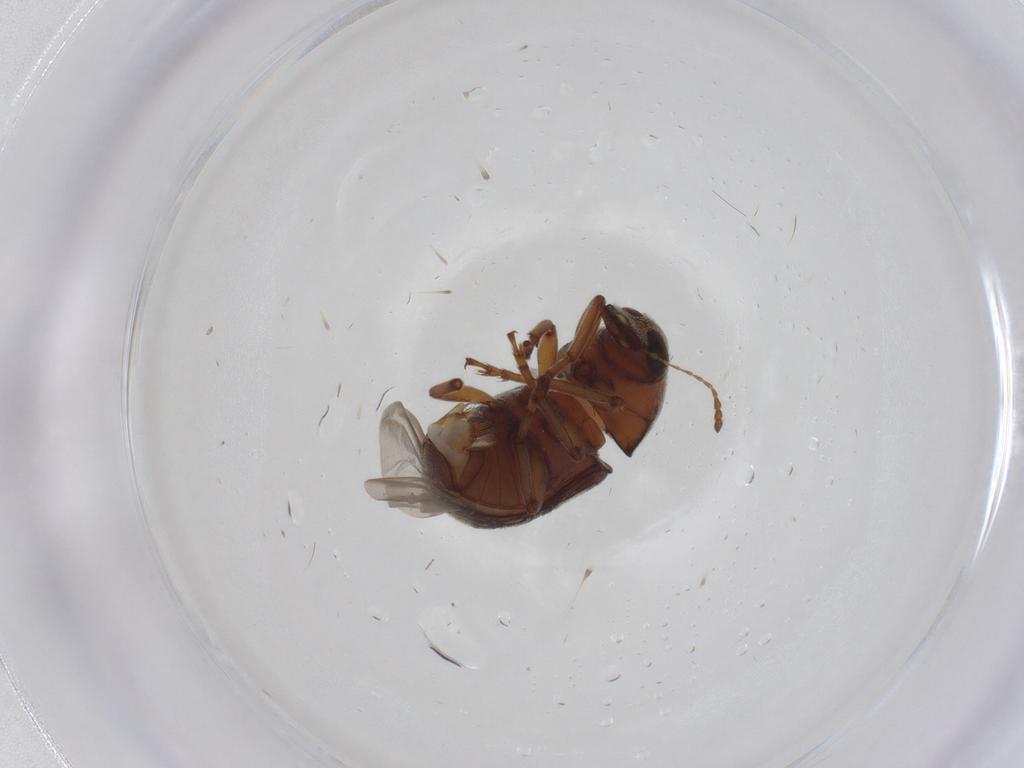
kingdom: Animalia
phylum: Arthropoda
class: Insecta
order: Coleoptera
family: Anthribidae
